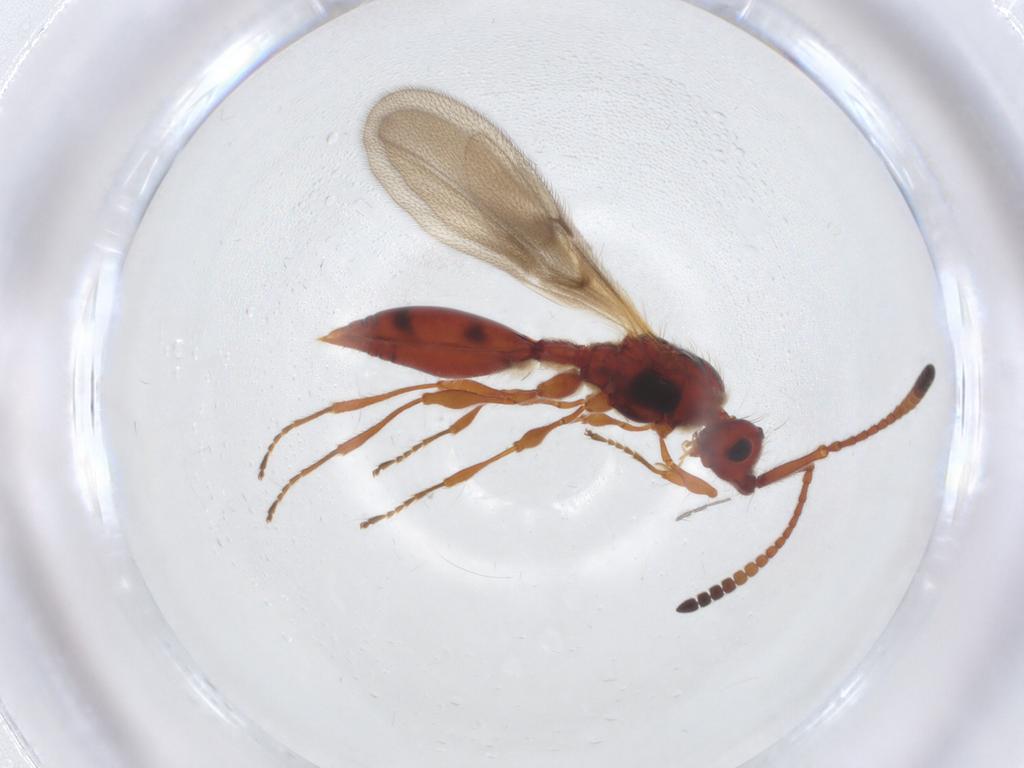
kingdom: Animalia
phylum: Arthropoda
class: Insecta
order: Hymenoptera
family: Diapriidae
